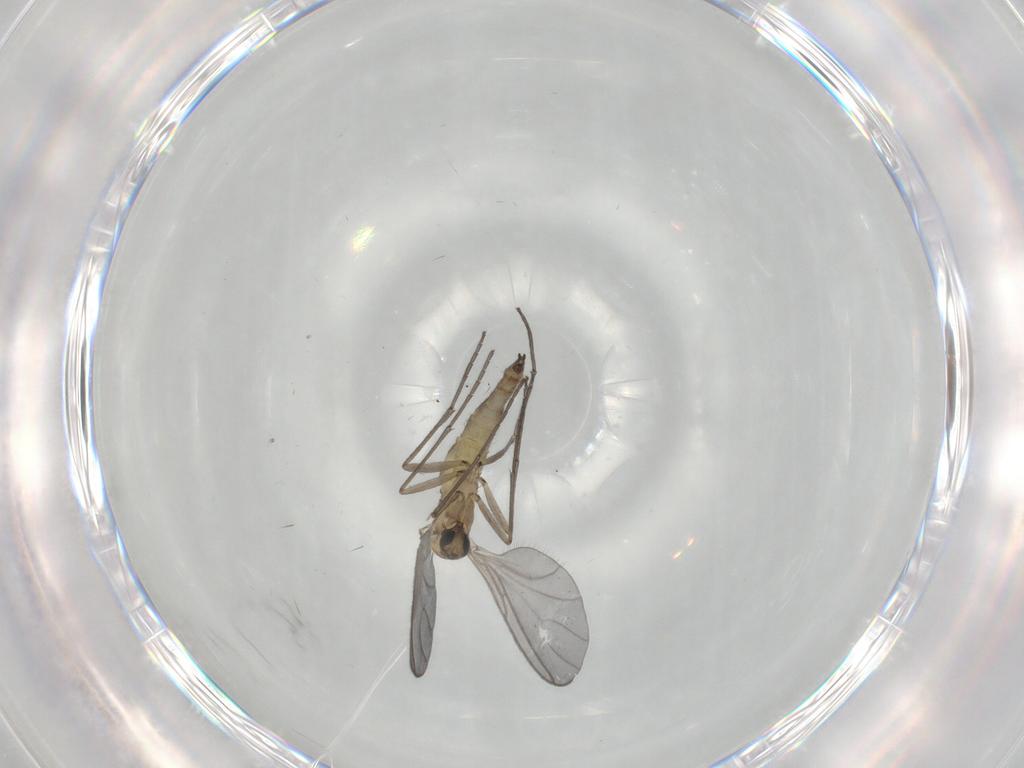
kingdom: Animalia
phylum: Arthropoda
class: Insecta
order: Diptera
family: Sciaridae
